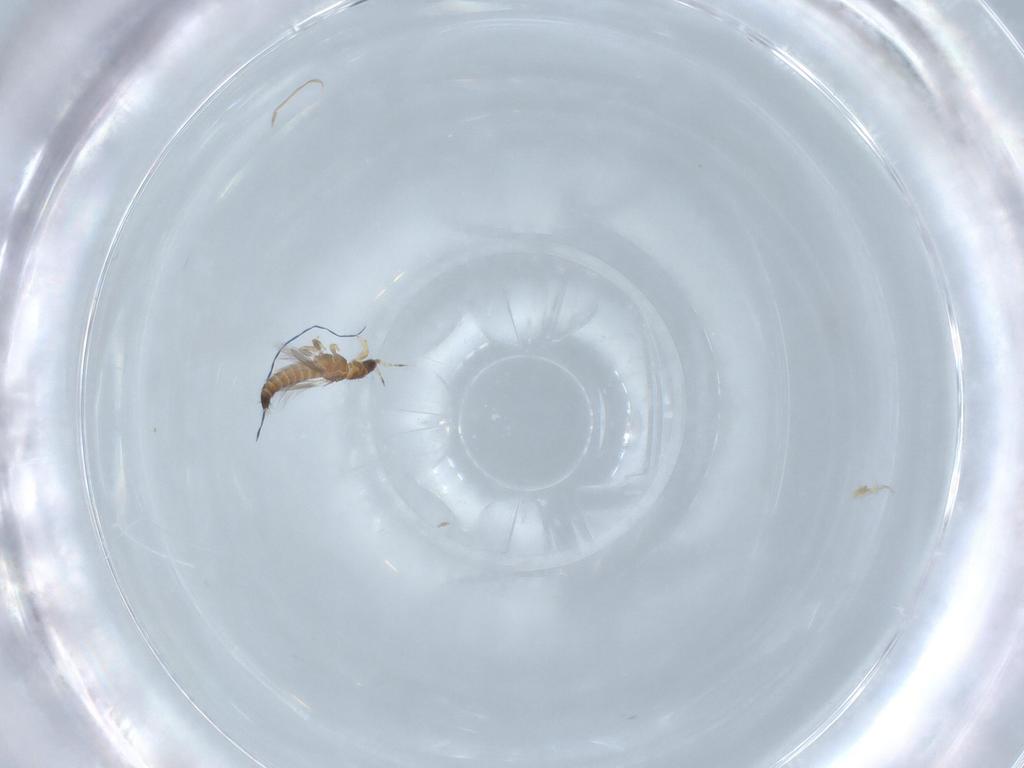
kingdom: Animalia
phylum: Arthropoda
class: Insecta
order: Thysanoptera
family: Thripidae
